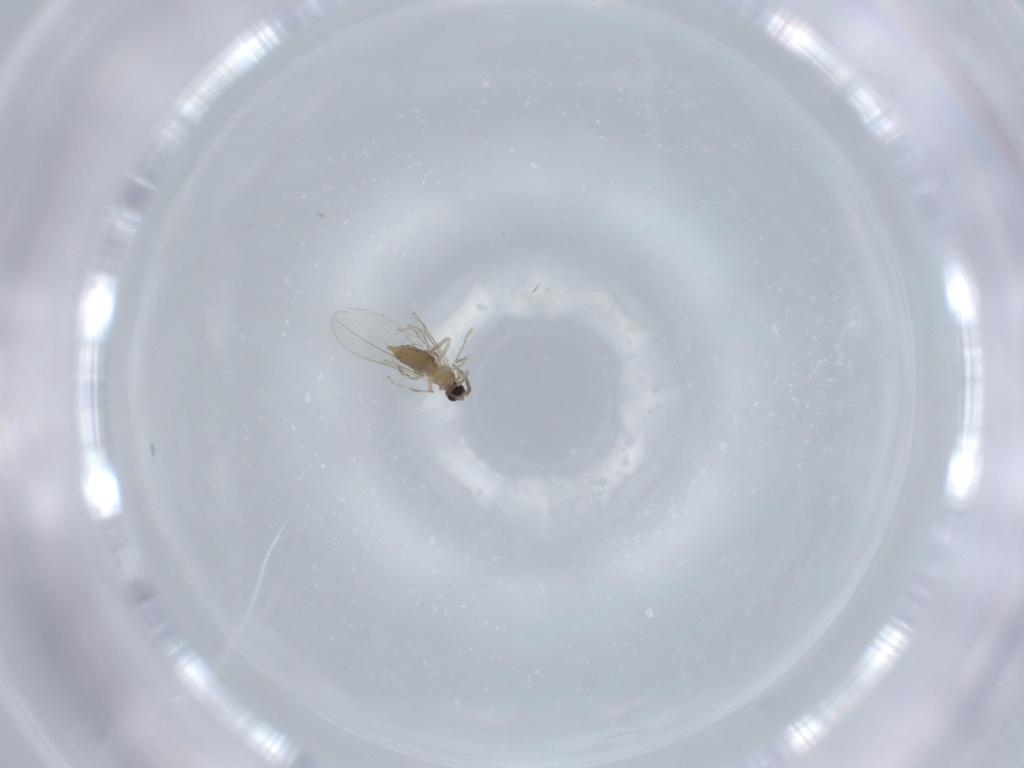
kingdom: Animalia
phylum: Arthropoda
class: Insecta
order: Diptera
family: Cecidomyiidae
